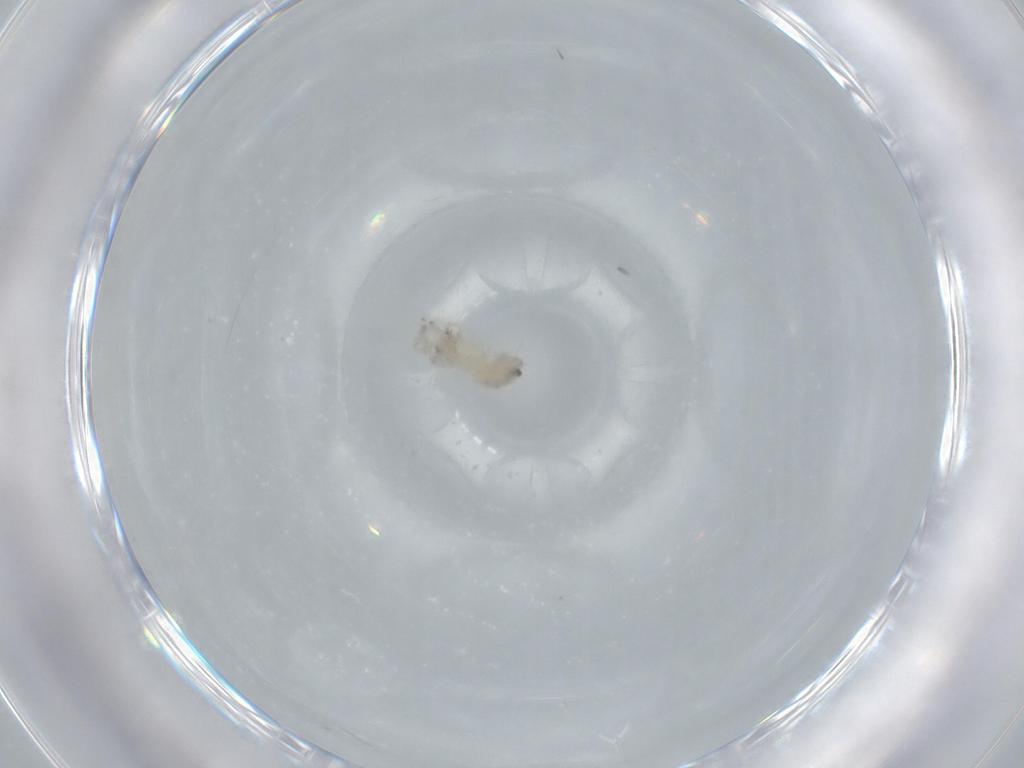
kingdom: Animalia
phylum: Arthropoda
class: Arachnida
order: Araneae
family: Oonopidae
